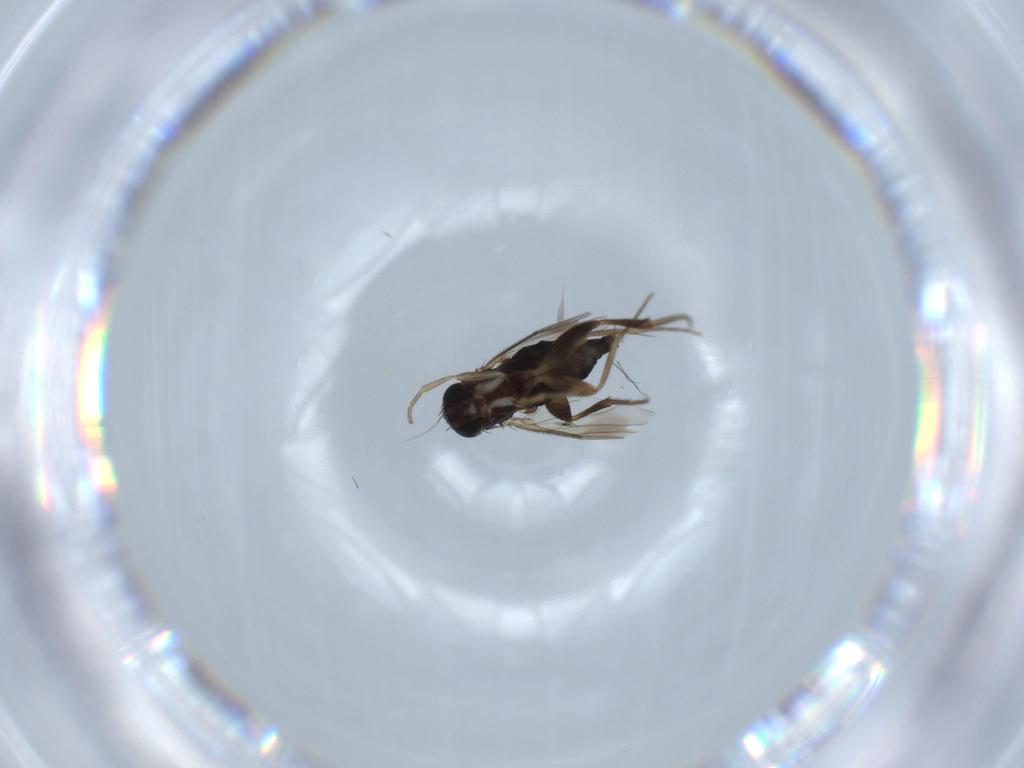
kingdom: Animalia
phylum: Arthropoda
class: Insecta
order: Diptera
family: Phoridae
